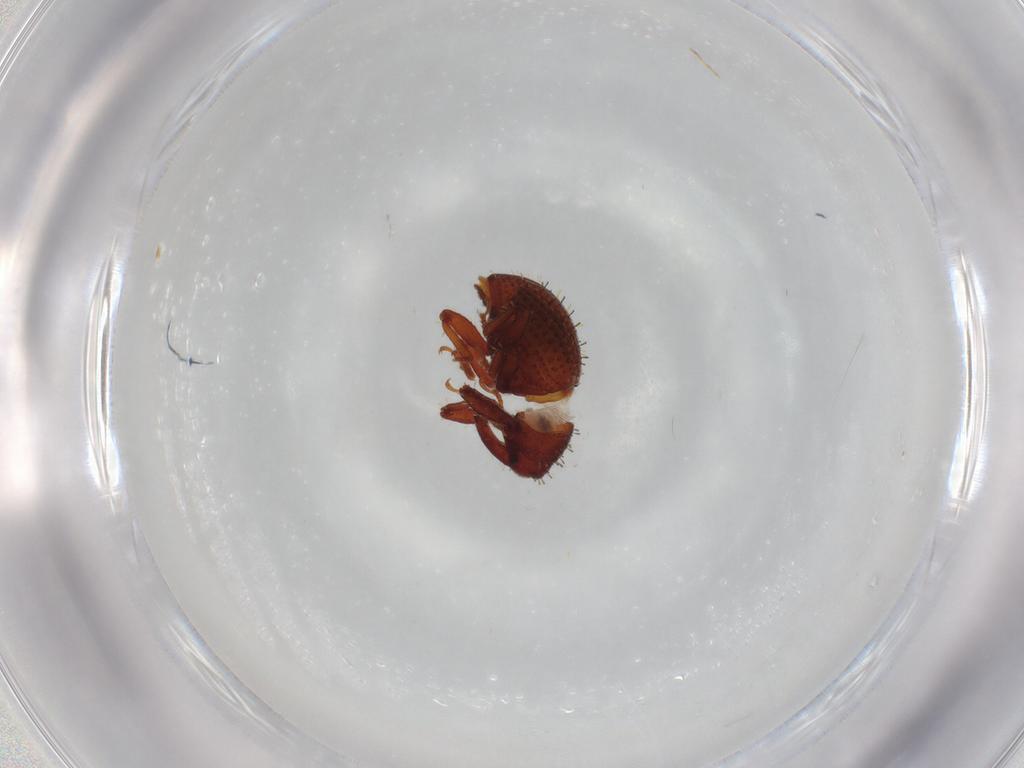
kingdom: Animalia
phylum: Arthropoda
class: Insecta
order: Coleoptera
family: Curculionidae
